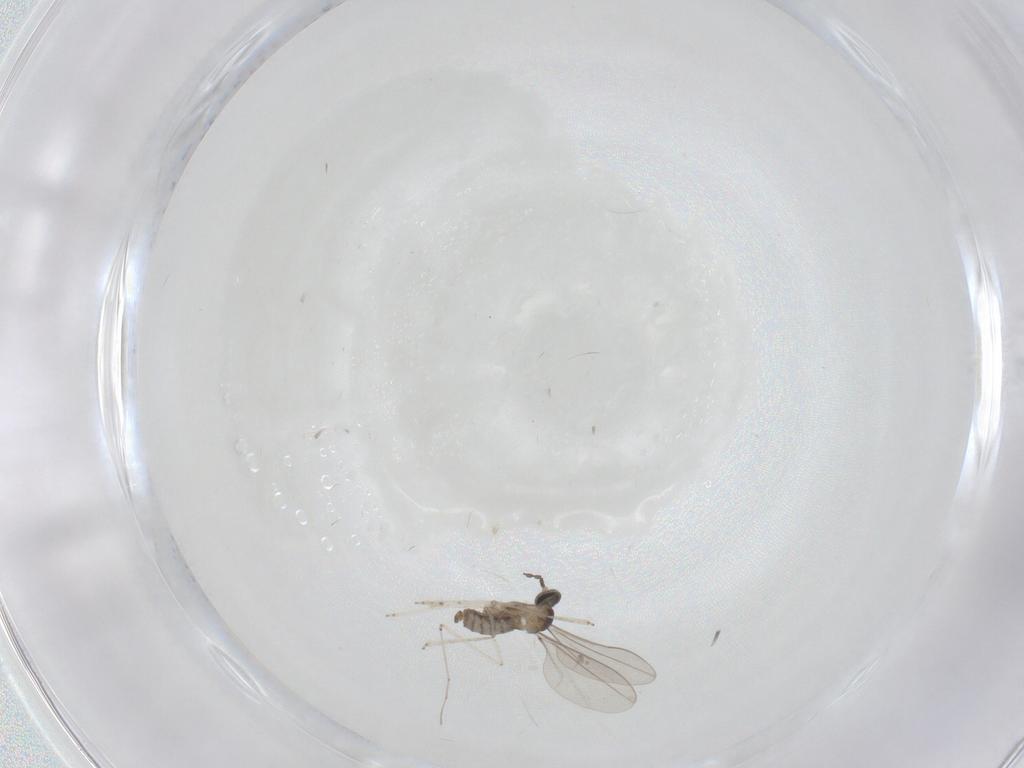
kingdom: Animalia
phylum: Arthropoda
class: Insecta
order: Diptera
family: Cecidomyiidae
